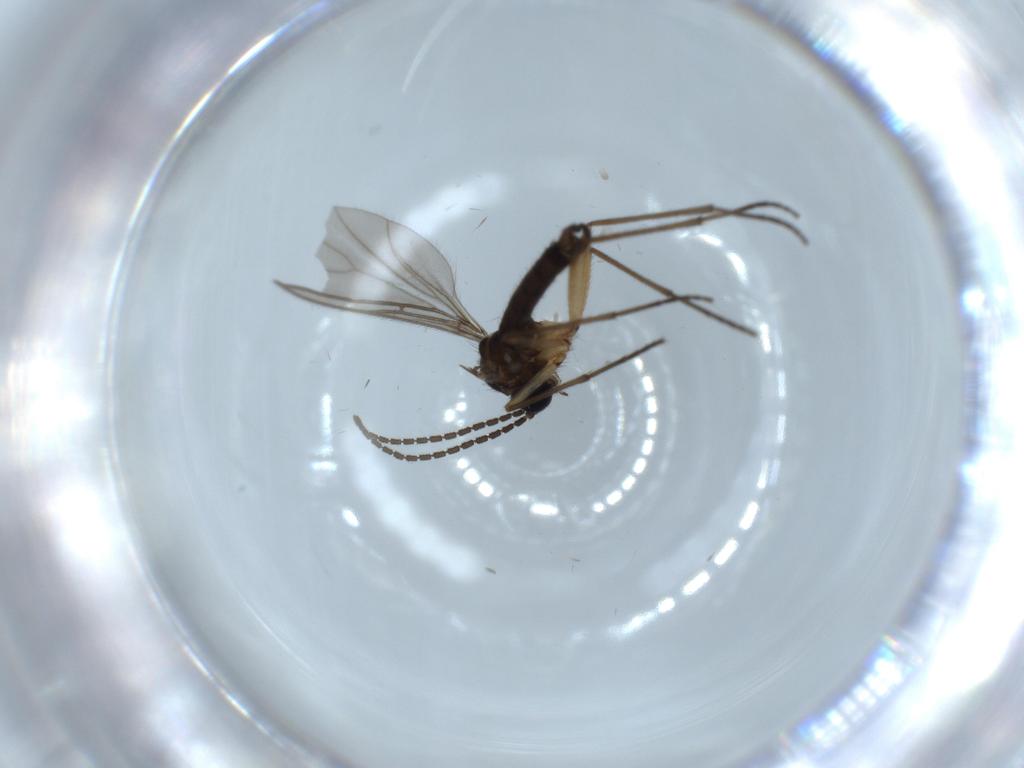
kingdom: Animalia
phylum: Arthropoda
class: Insecta
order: Diptera
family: Sciaridae
